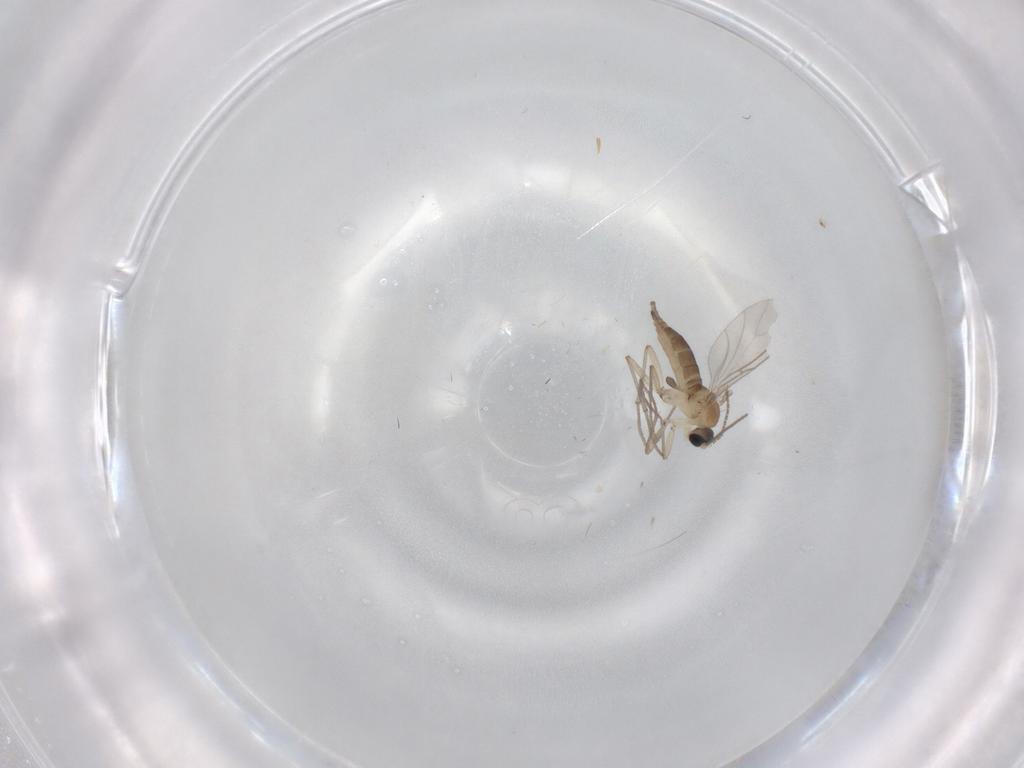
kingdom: Animalia
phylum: Arthropoda
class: Insecta
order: Diptera
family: Sciaridae
